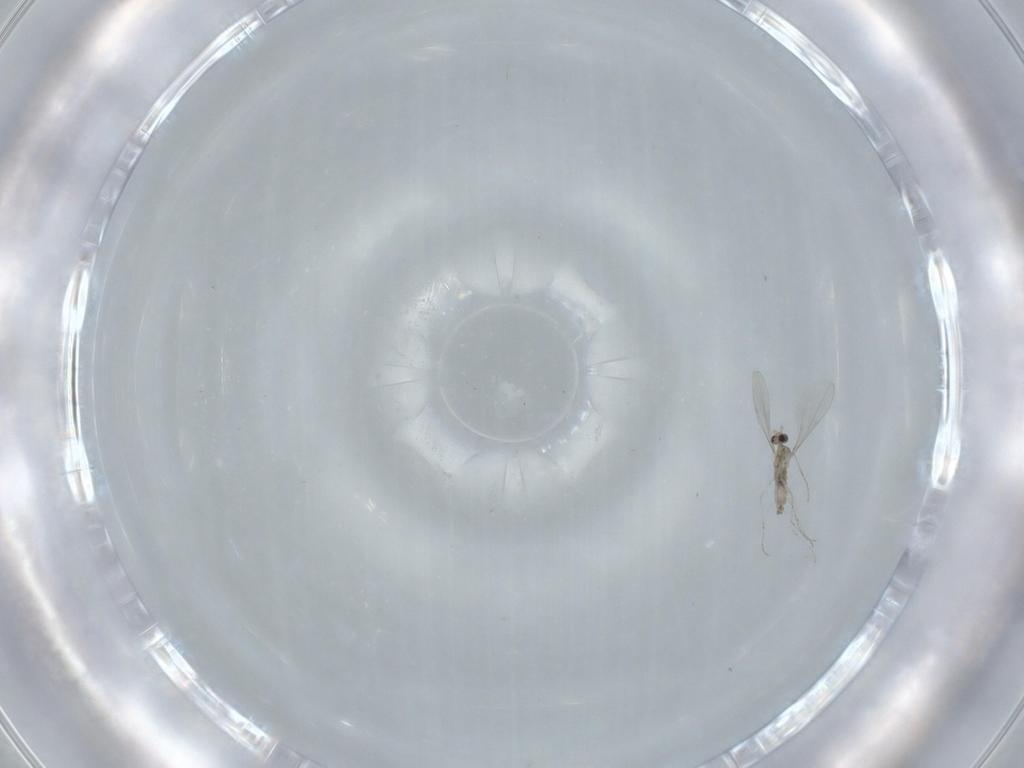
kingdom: Animalia
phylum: Arthropoda
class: Insecta
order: Diptera
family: Cecidomyiidae
